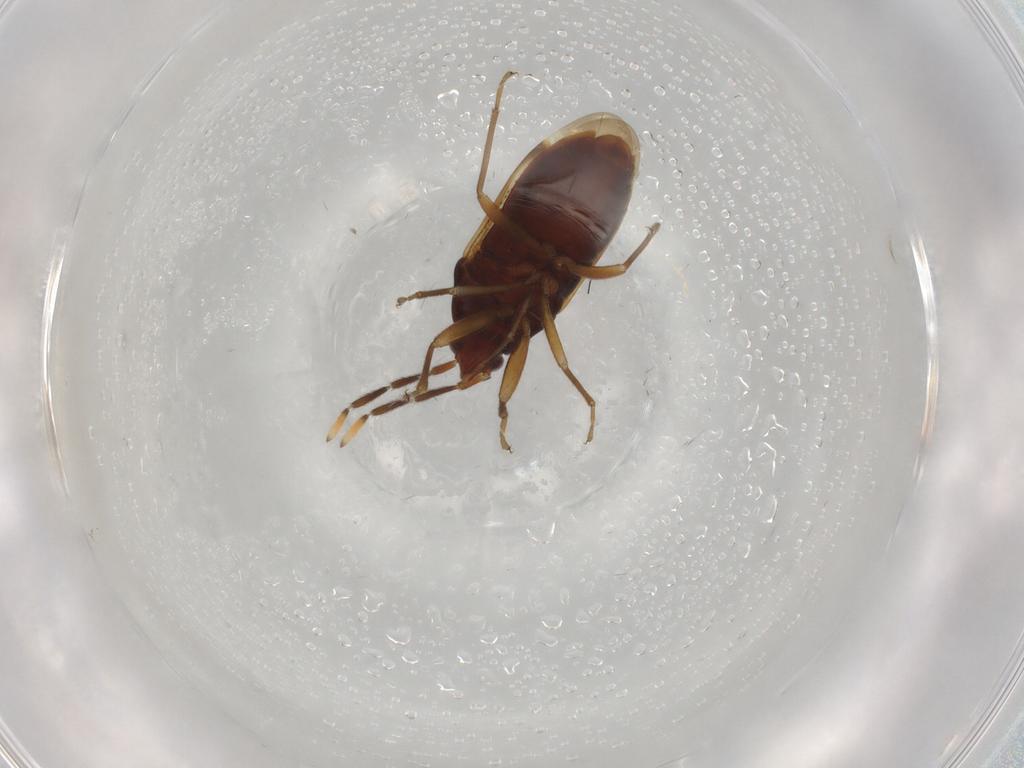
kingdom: Animalia
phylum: Arthropoda
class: Insecta
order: Hemiptera
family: Rhyparochromidae
